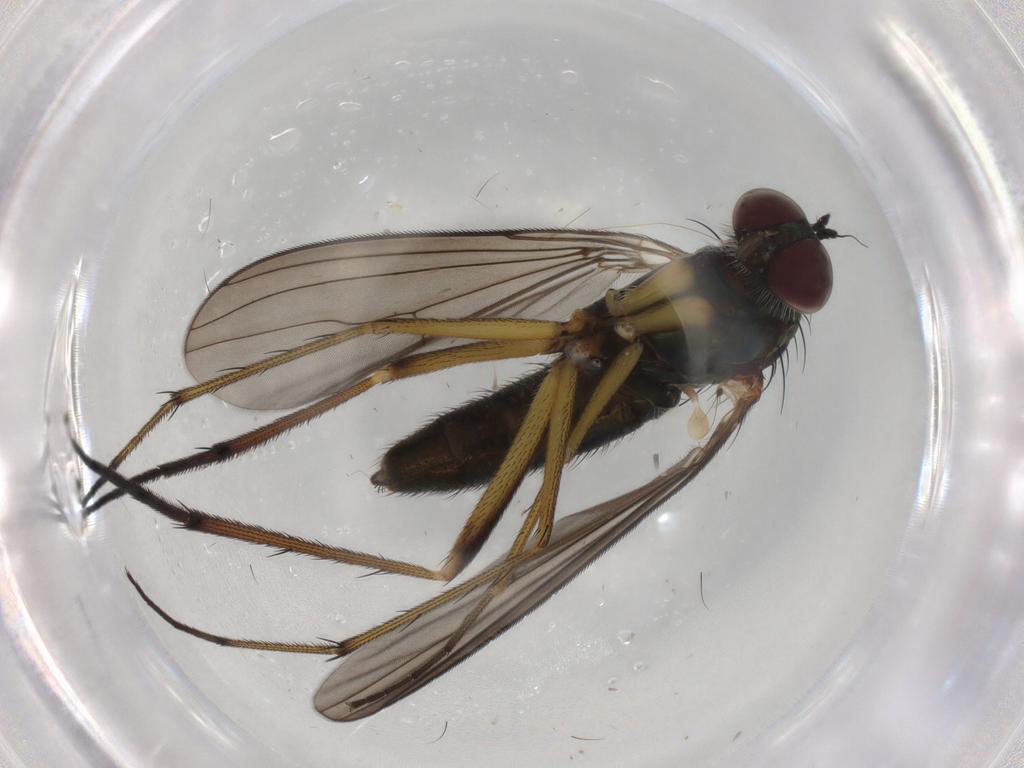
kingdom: Animalia
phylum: Arthropoda
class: Insecta
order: Diptera
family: Dolichopodidae
